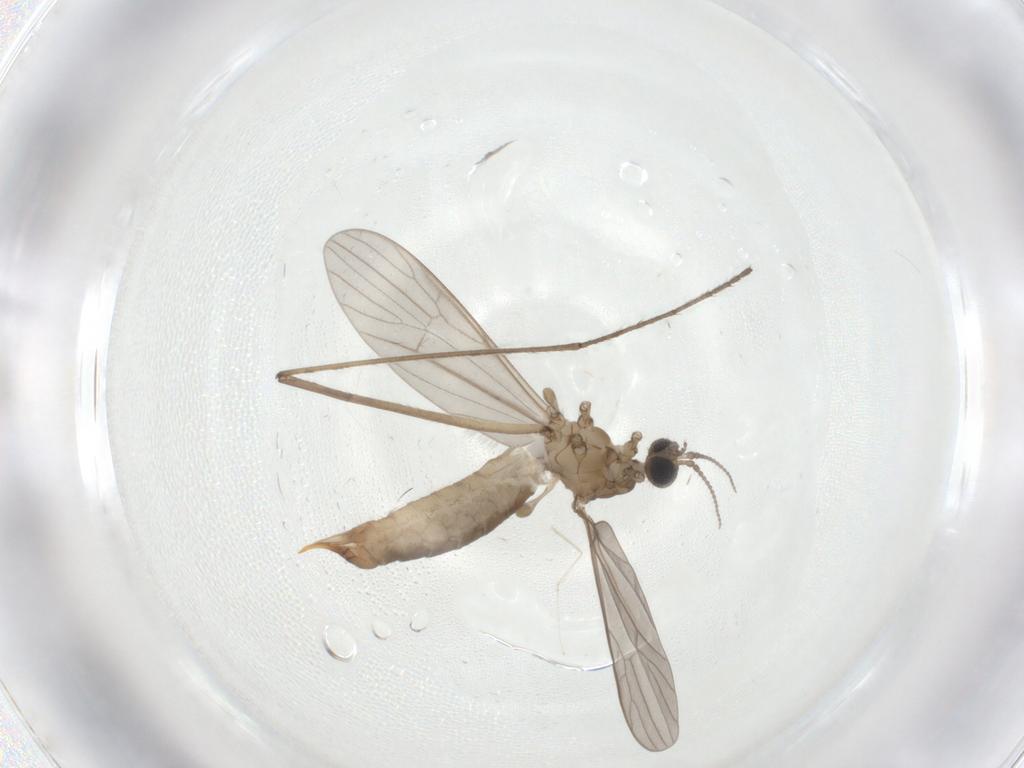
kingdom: Animalia
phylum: Arthropoda
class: Insecta
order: Diptera
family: Limoniidae
